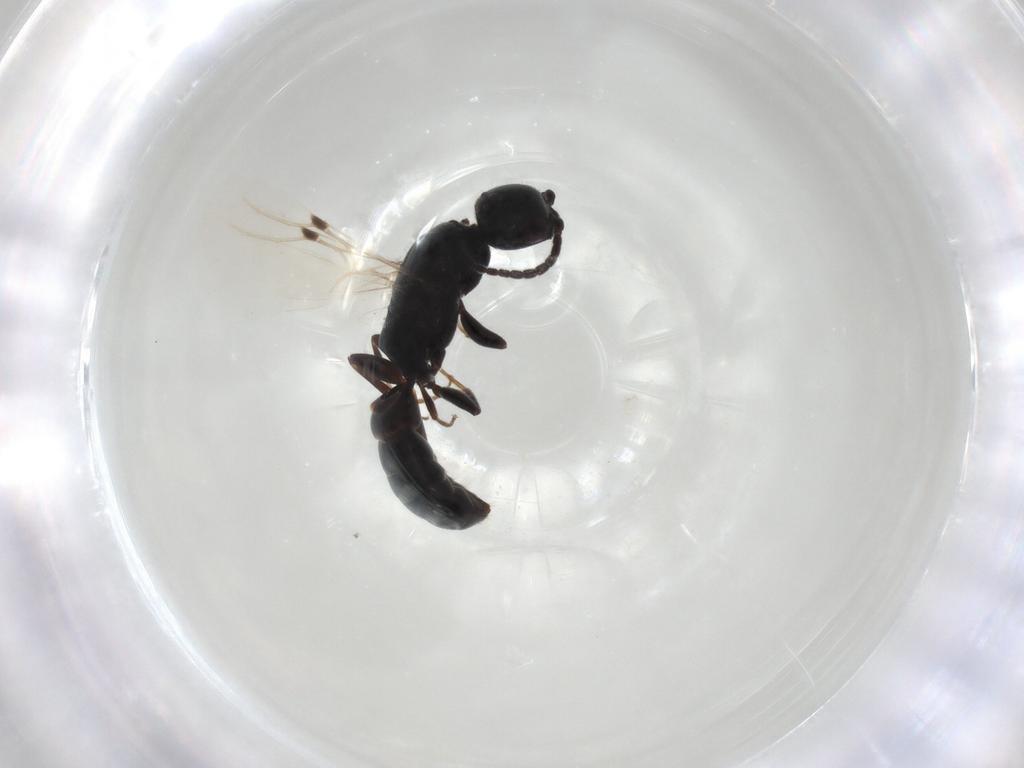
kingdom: Animalia
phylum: Arthropoda
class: Insecta
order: Hymenoptera
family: Bethylidae
